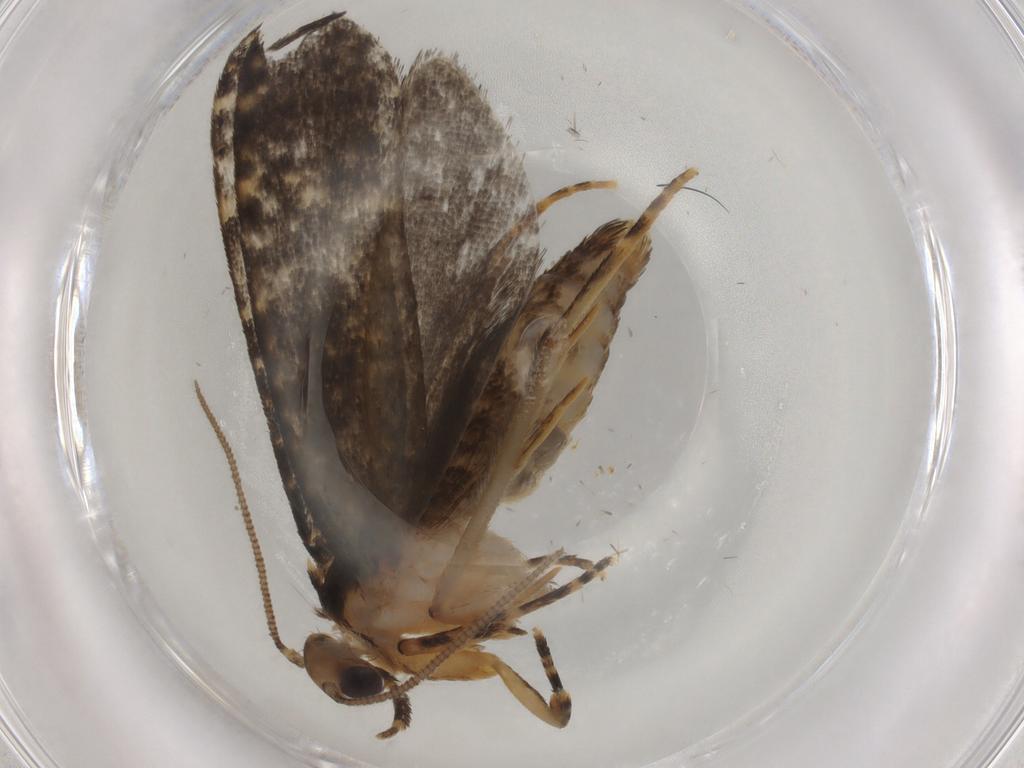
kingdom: Animalia
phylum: Arthropoda
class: Insecta
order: Lepidoptera
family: Tineidae
